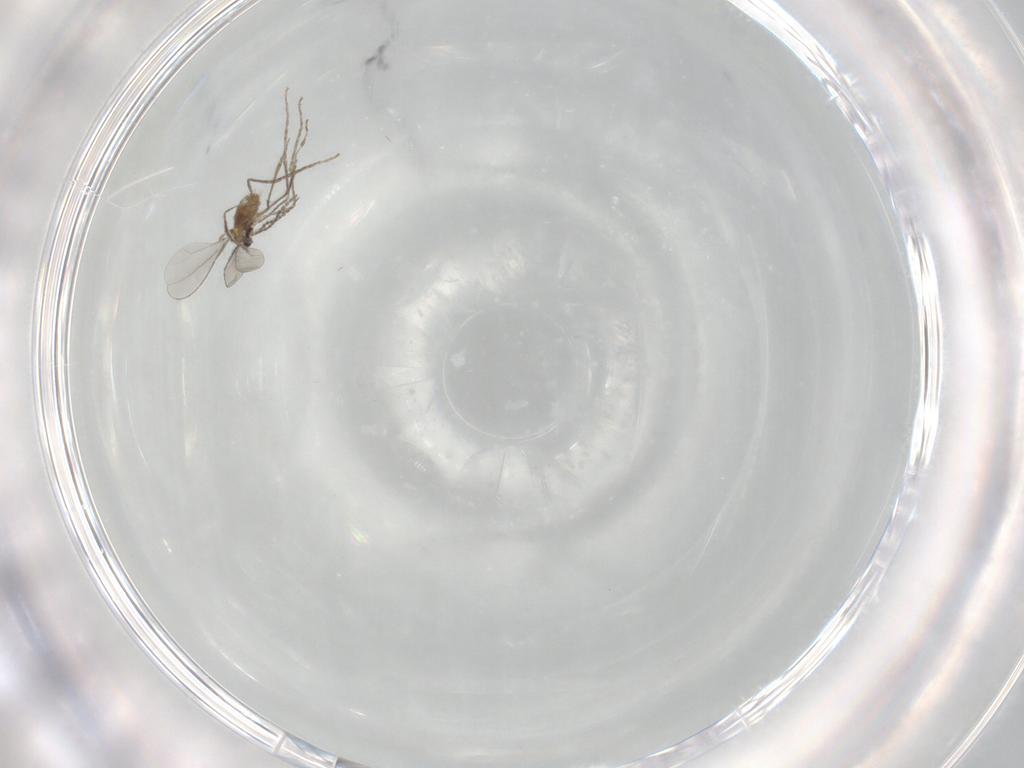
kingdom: Animalia
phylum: Arthropoda
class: Insecta
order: Diptera
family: Cecidomyiidae
